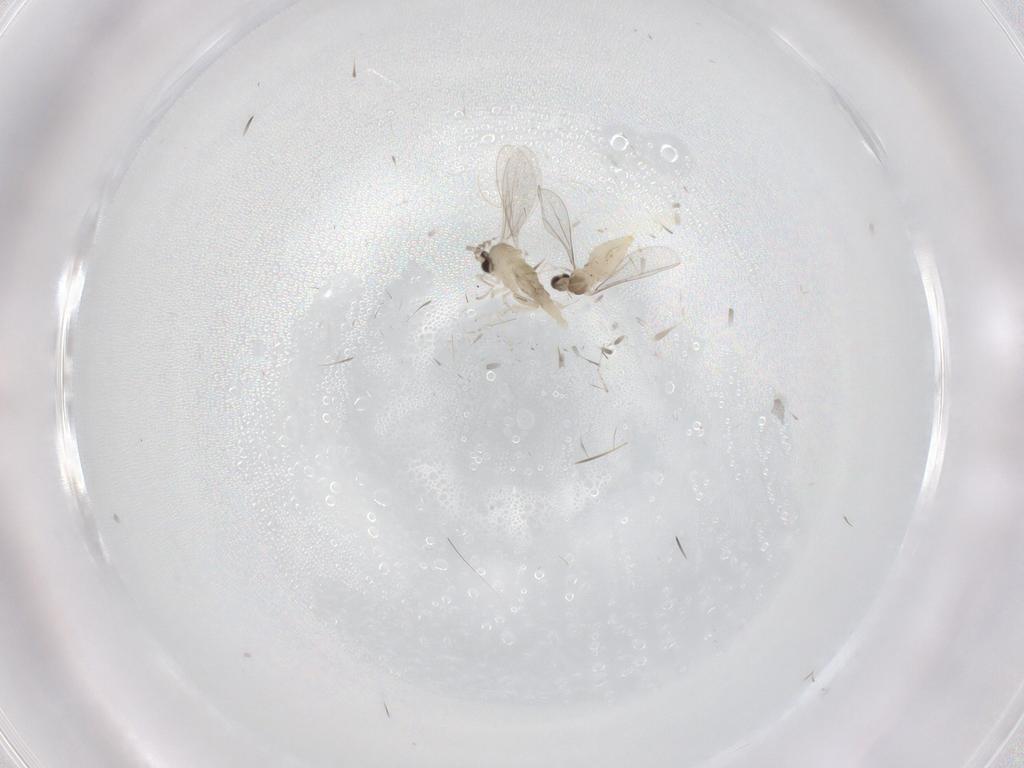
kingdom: Animalia
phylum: Arthropoda
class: Insecta
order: Diptera
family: Cecidomyiidae
